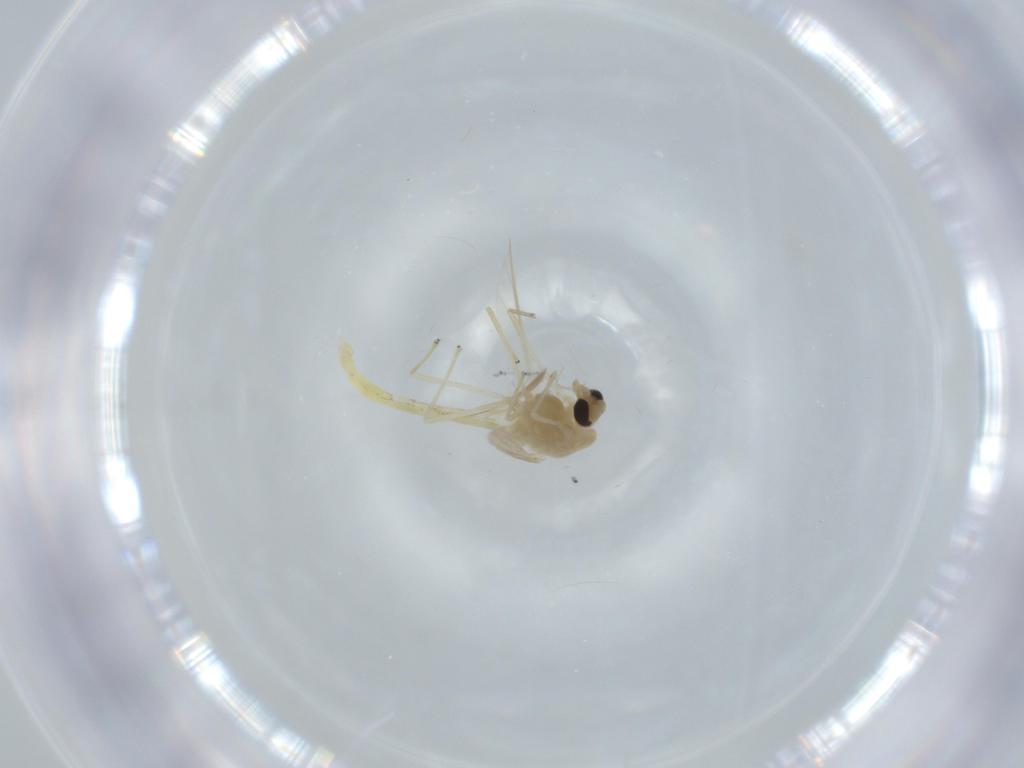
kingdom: Animalia
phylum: Arthropoda
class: Insecta
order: Diptera
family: Chironomidae
